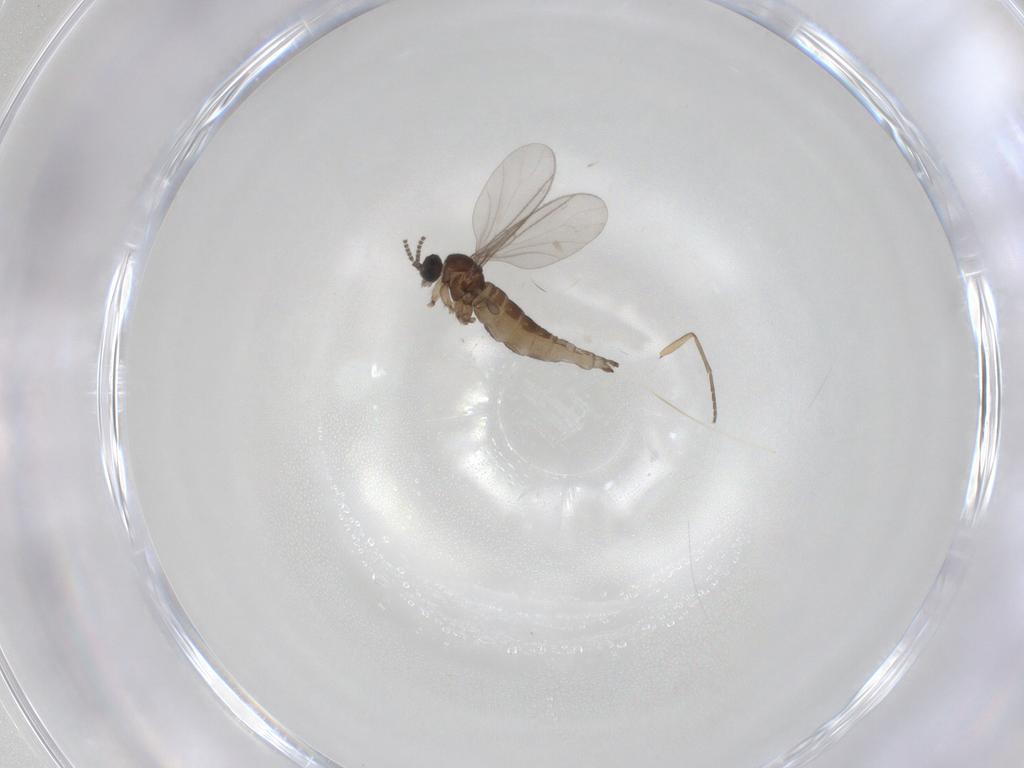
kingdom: Animalia
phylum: Arthropoda
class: Insecta
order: Diptera
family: Sciaridae
